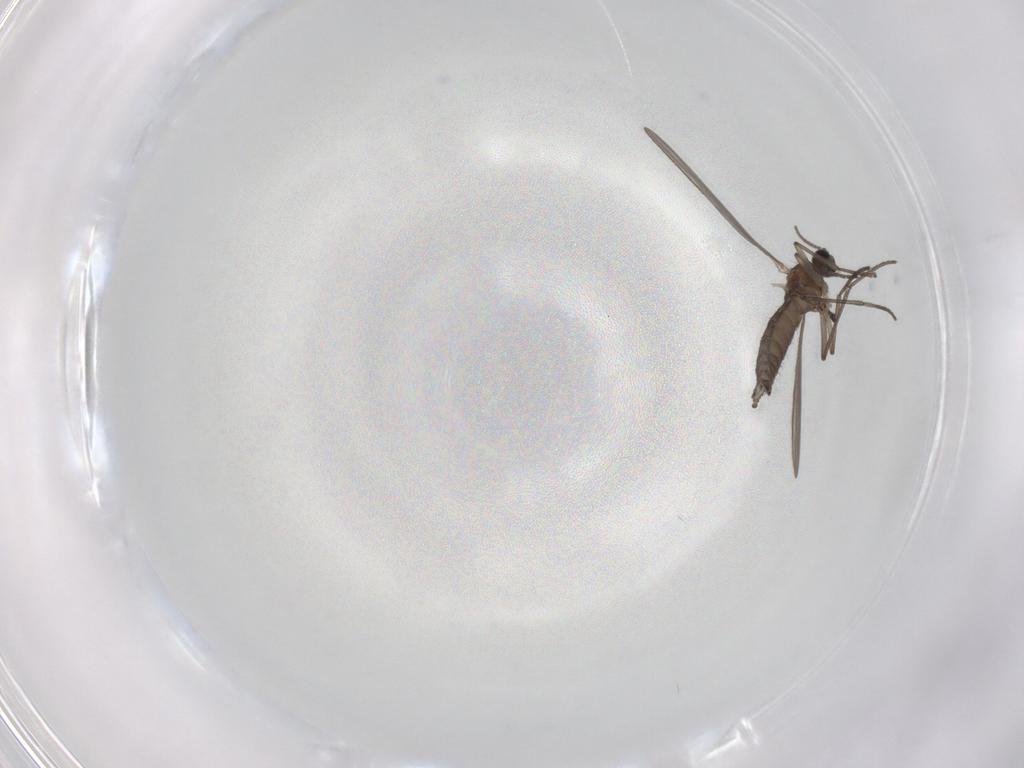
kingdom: Animalia
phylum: Arthropoda
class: Insecta
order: Diptera
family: Sciaridae
